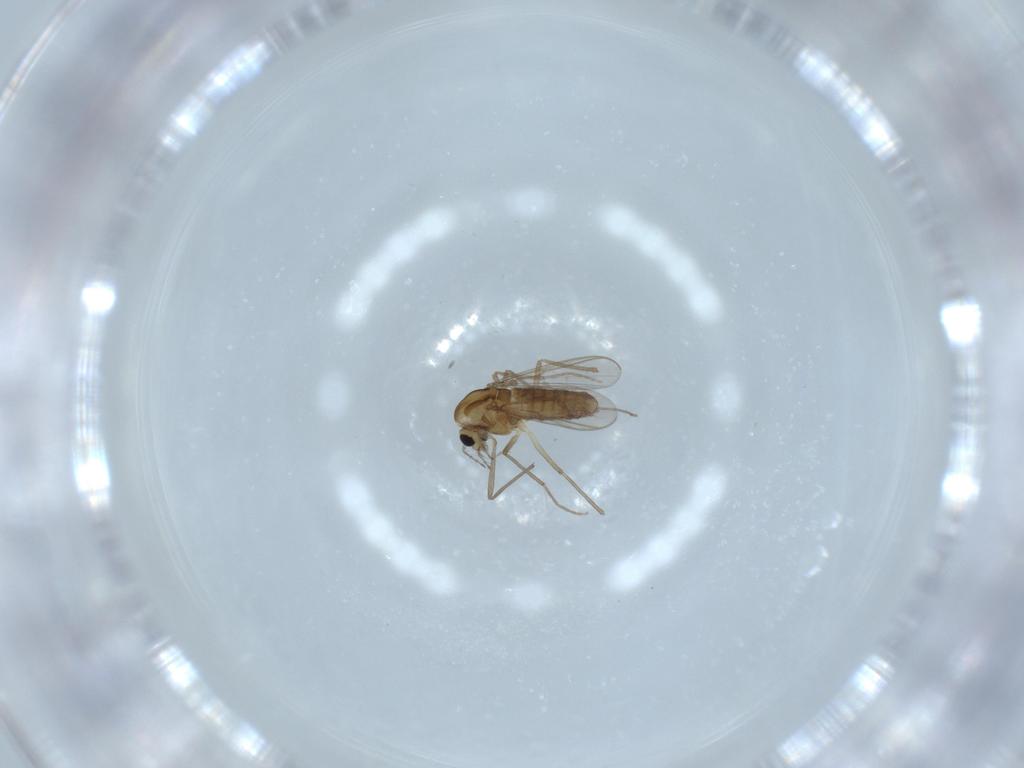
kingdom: Animalia
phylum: Arthropoda
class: Insecta
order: Diptera
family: Chironomidae
